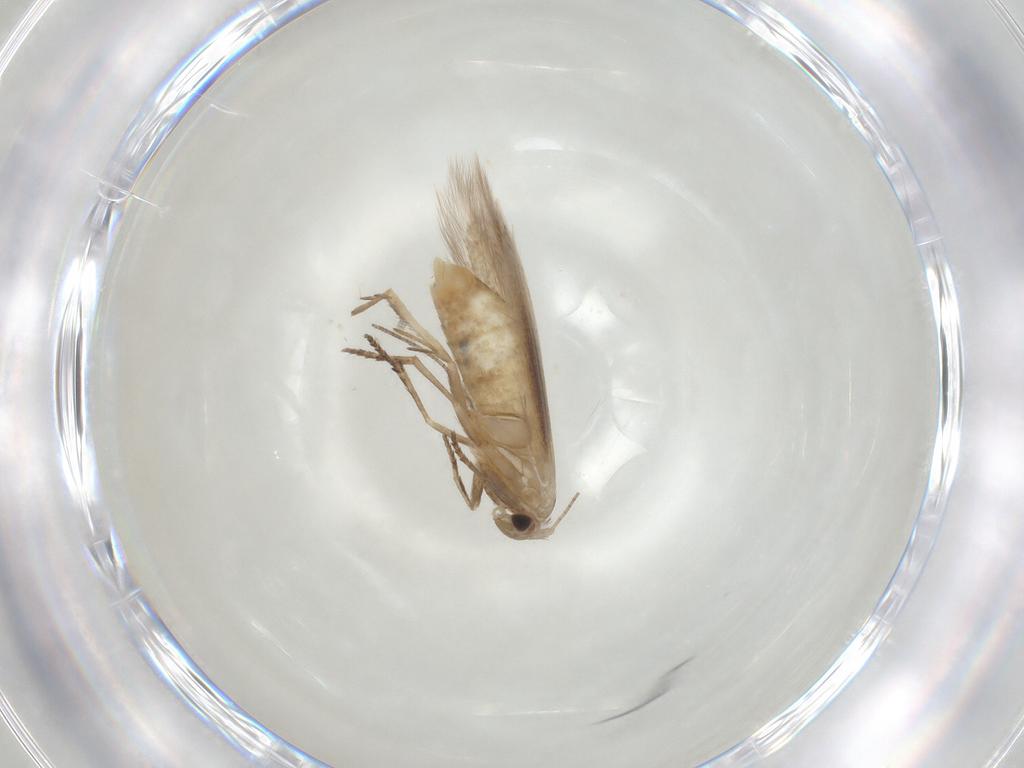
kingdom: Animalia
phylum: Arthropoda
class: Insecta
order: Lepidoptera
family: Bucculatricidae
